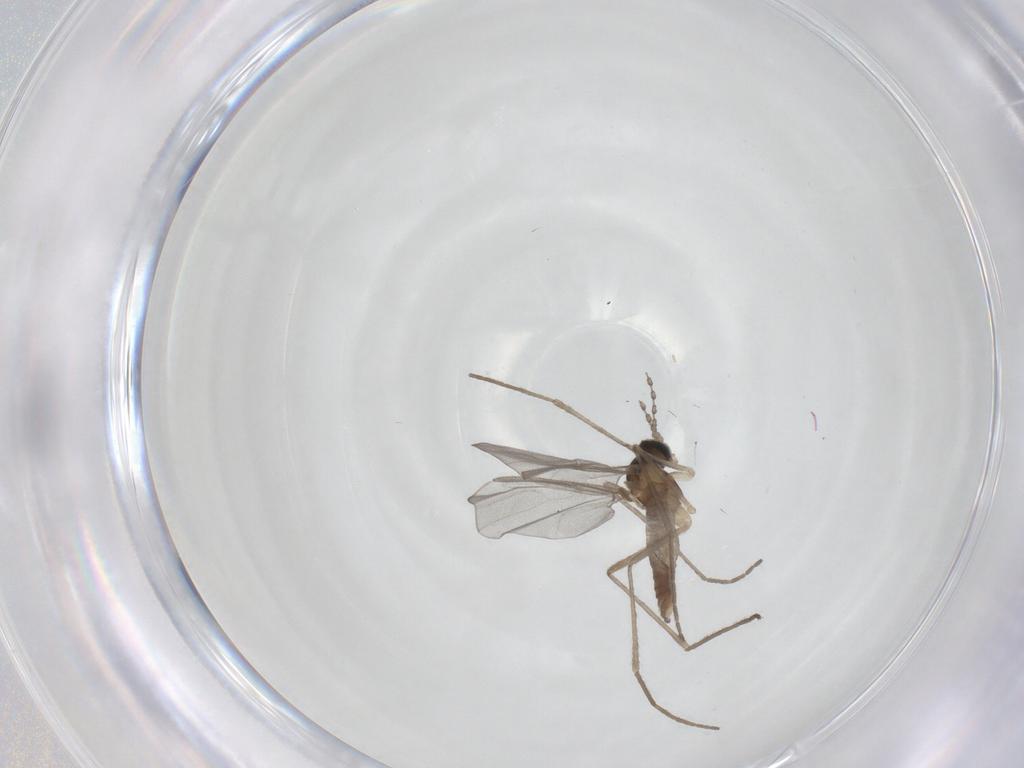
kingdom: Animalia
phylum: Arthropoda
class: Insecta
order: Diptera
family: Cecidomyiidae
